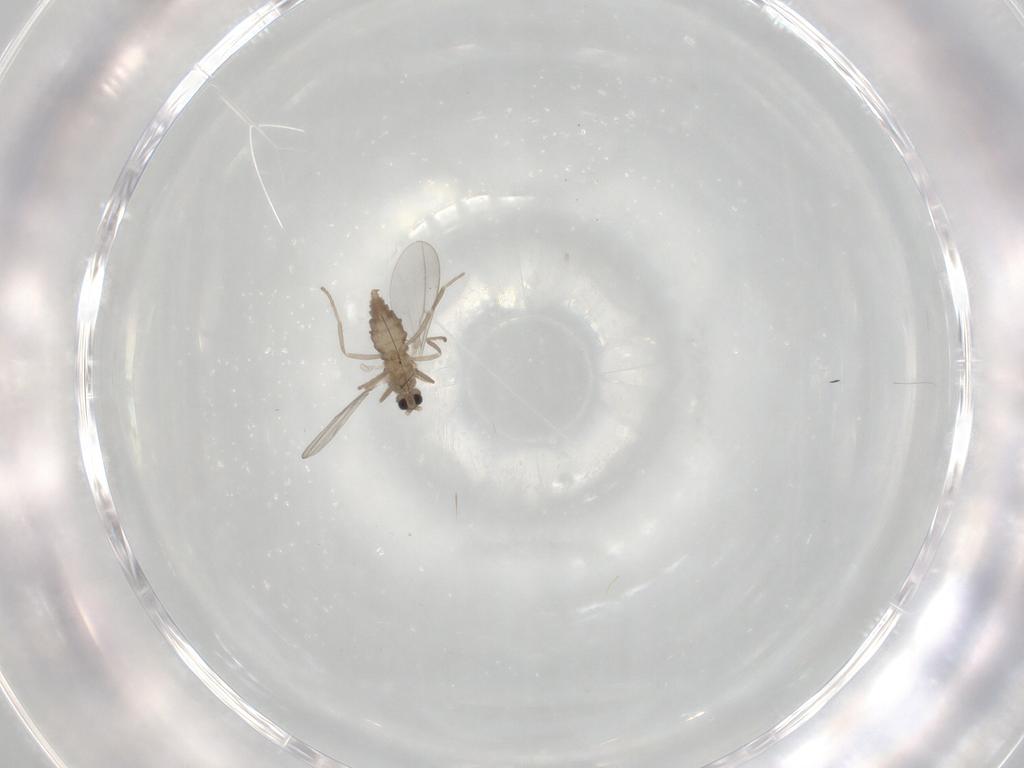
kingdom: Animalia
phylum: Arthropoda
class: Insecta
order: Diptera
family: Cecidomyiidae
